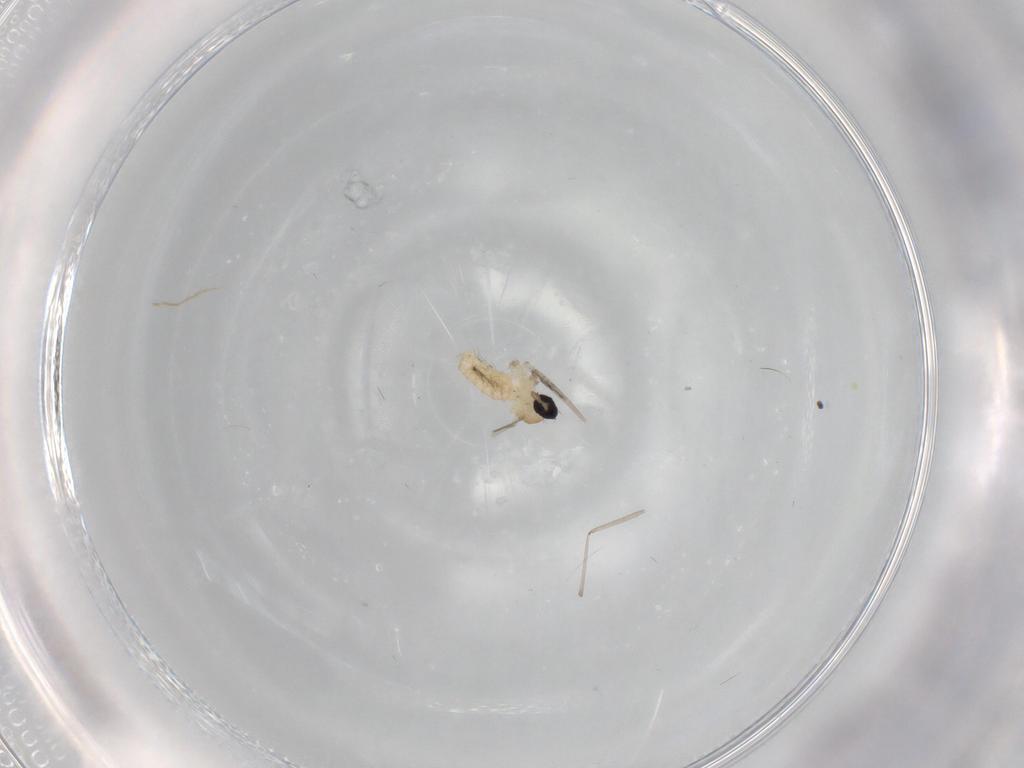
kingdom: Animalia
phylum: Arthropoda
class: Insecta
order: Diptera
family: Cecidomyiidae
